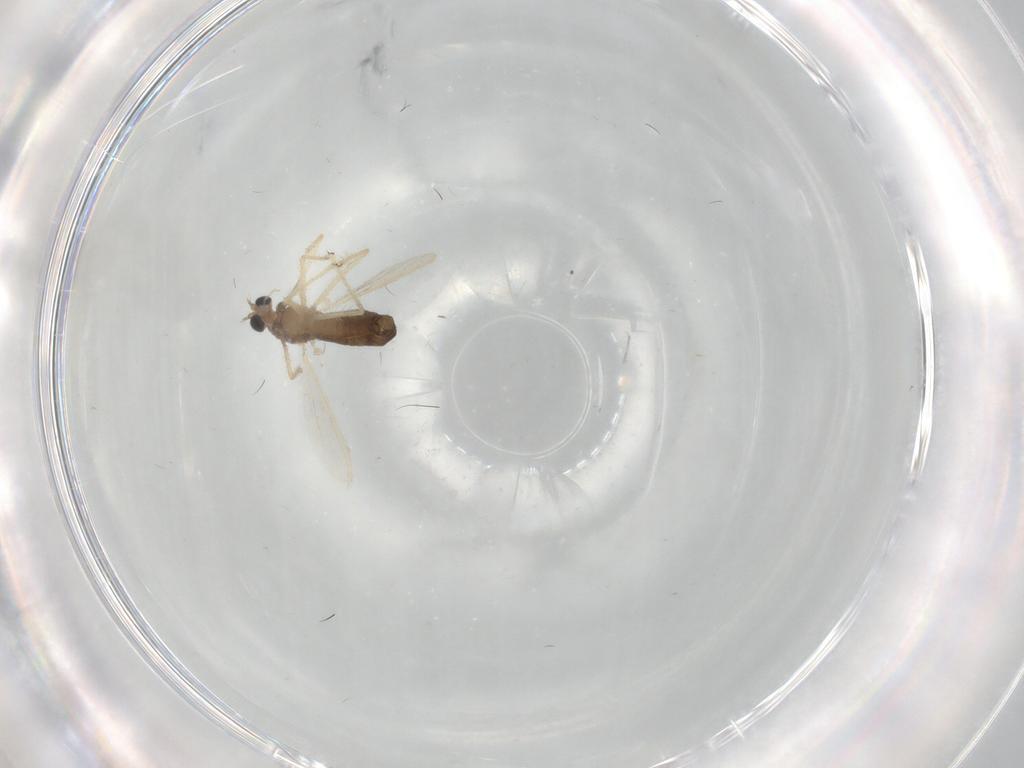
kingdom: Animalia
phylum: Arthropoda
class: Insecta
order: Diptera
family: Chironomidae
